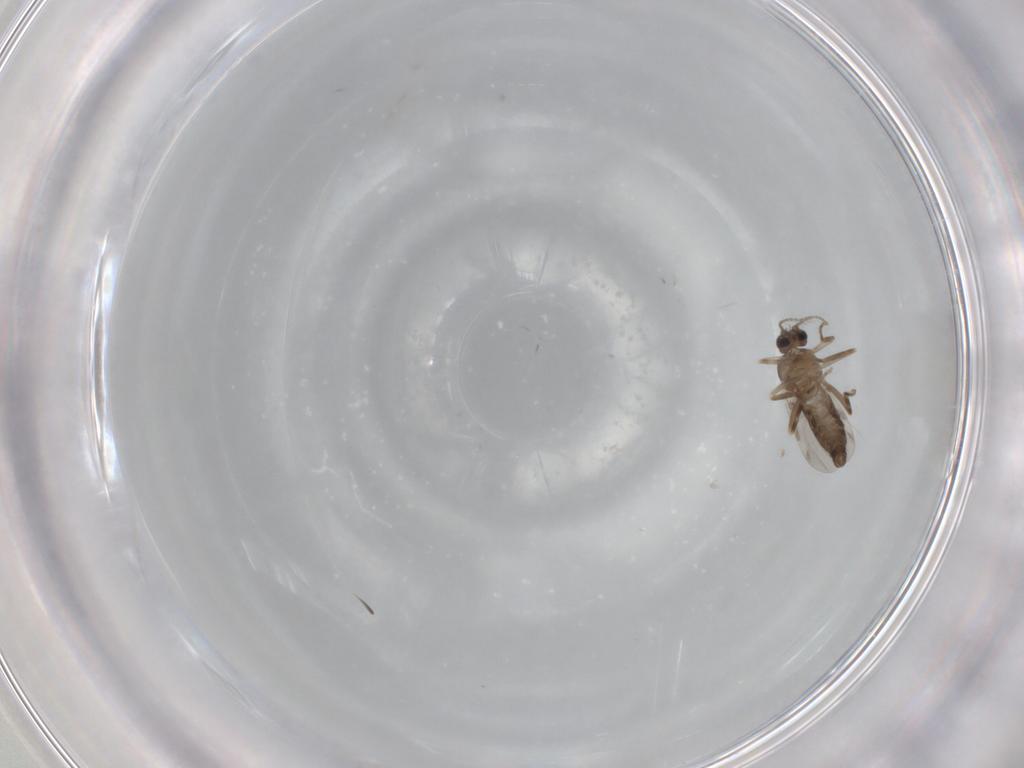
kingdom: Animalia
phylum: Arthropoda
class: Insecta
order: Diptera
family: Ceratopogonidae
